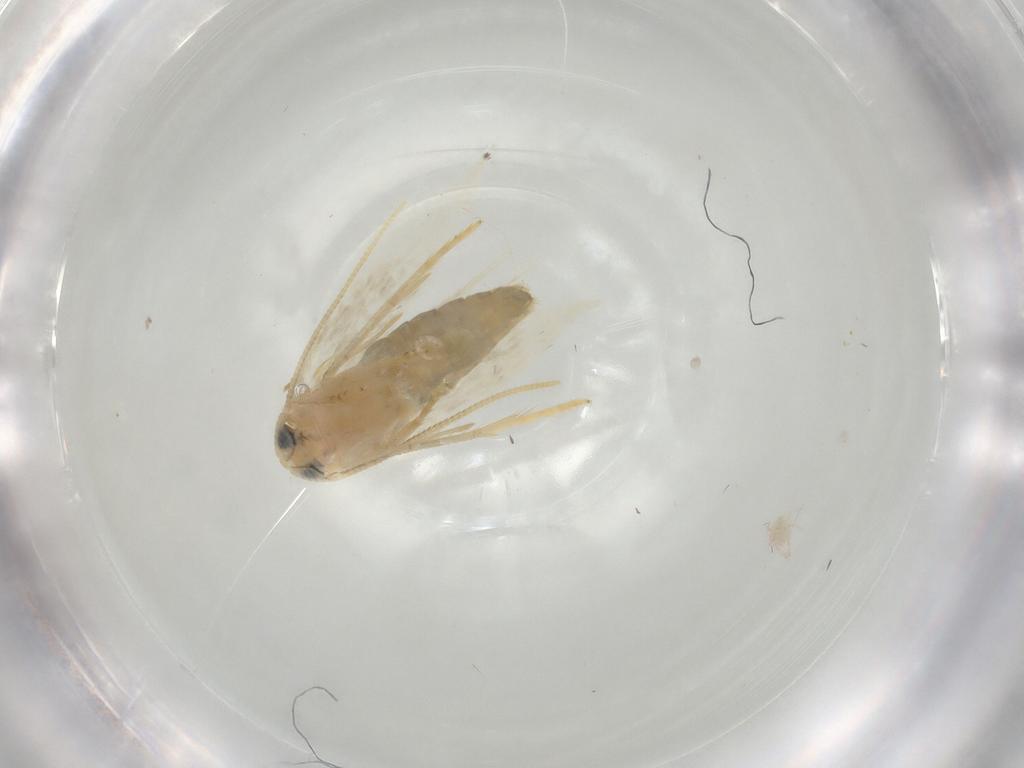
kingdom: Animalia
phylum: Arthropoda
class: Insecta
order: Lepidoptera
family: Opostegidae
